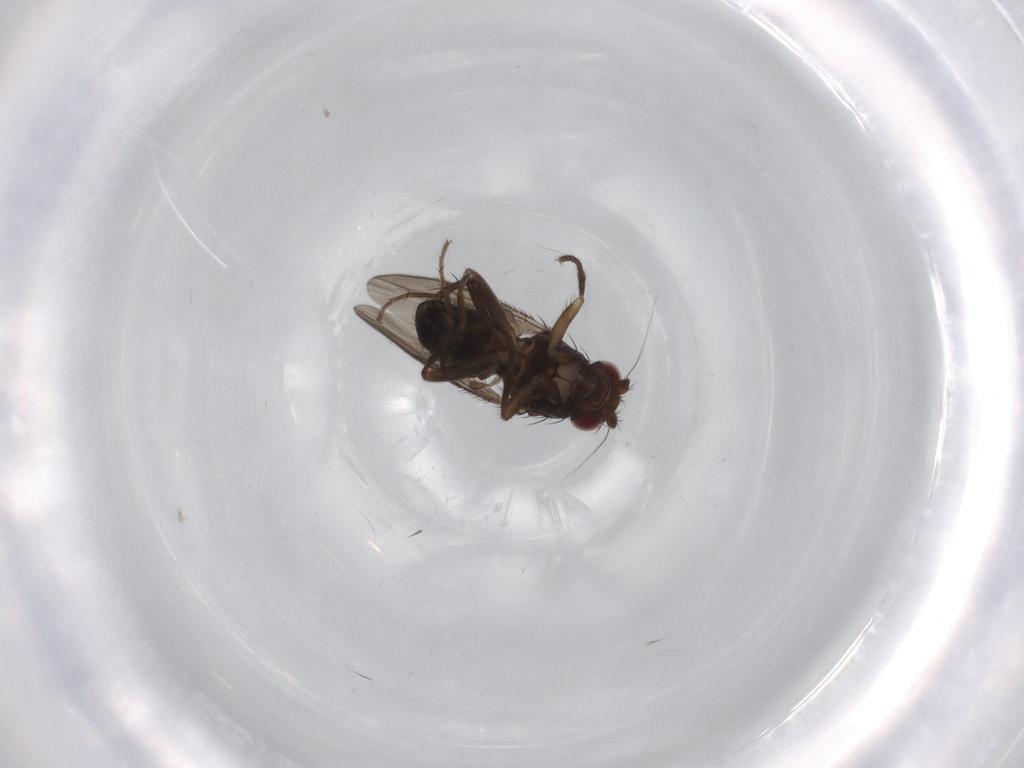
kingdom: Animalia
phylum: Arthropoda
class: Insecta
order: Diptera
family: Sphaeroceridae
